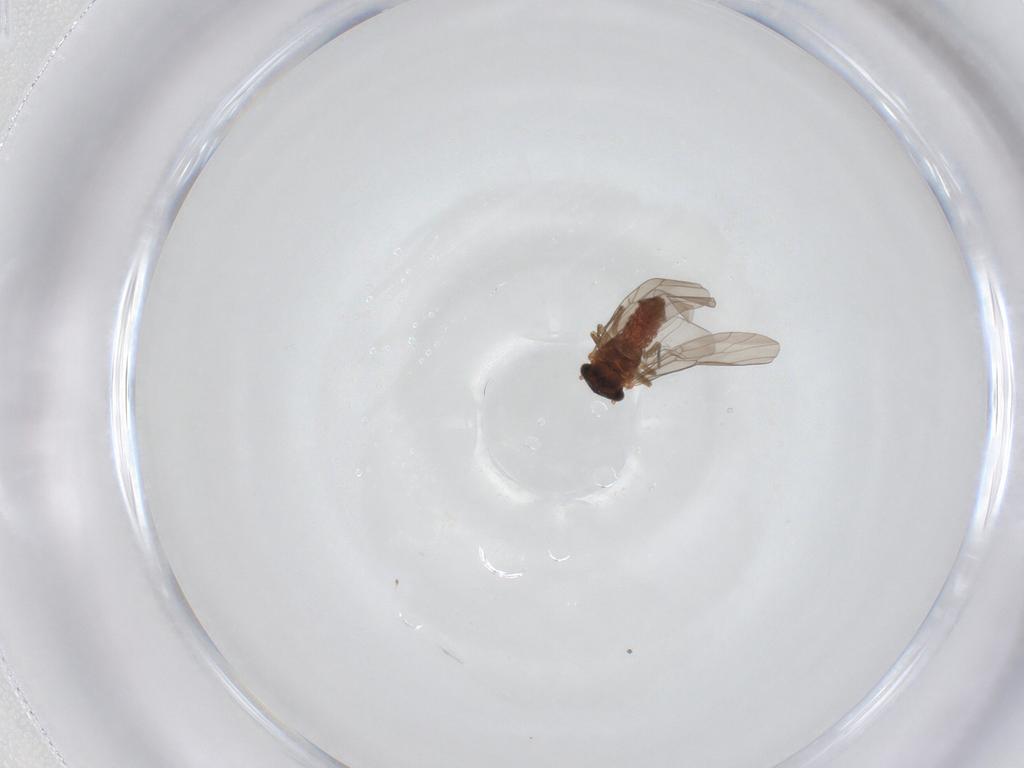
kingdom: Animalia
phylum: Arthropoda
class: Insecta
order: Psocodea
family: Lepidopsocidae
